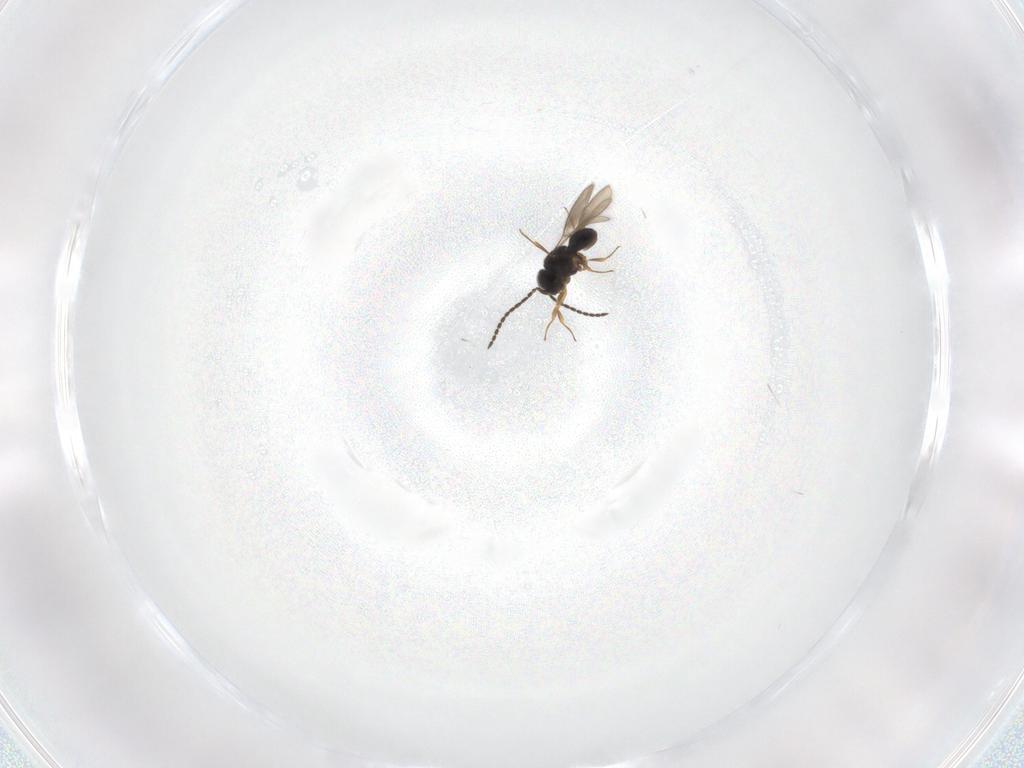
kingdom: Animalia
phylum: Arthropoda
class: Insecta
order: Hymenoptera
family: Scelionidae
